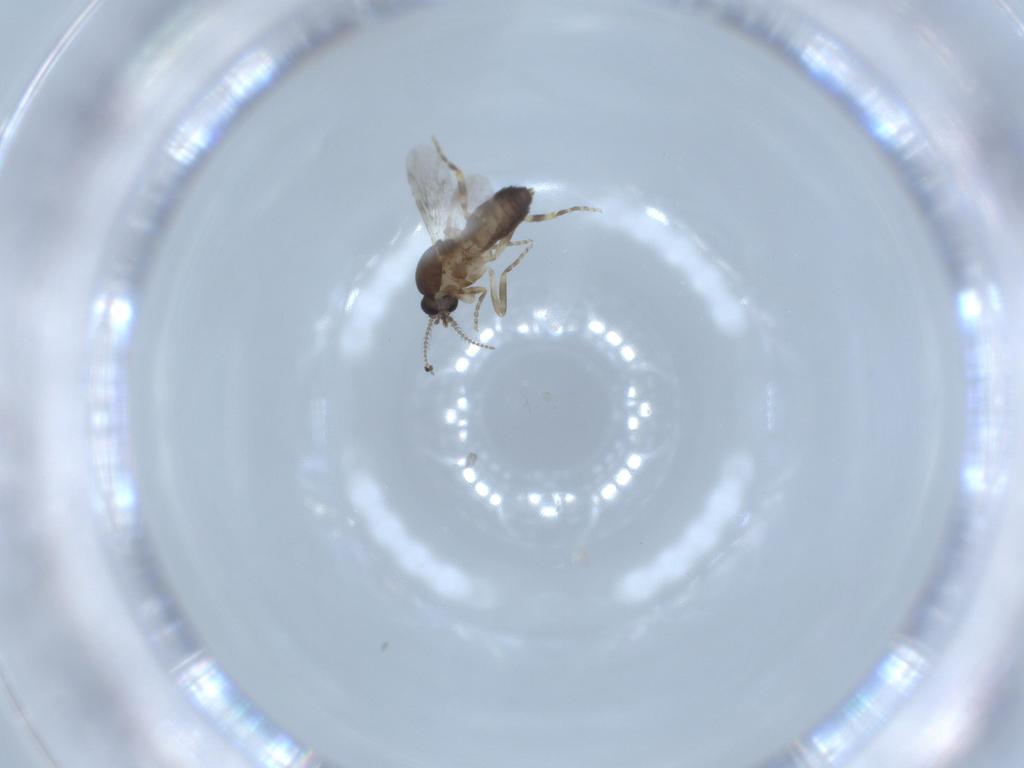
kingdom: Animalia
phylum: Arthropoda
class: Insecta
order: Diptera
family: Ceratopogonidae
